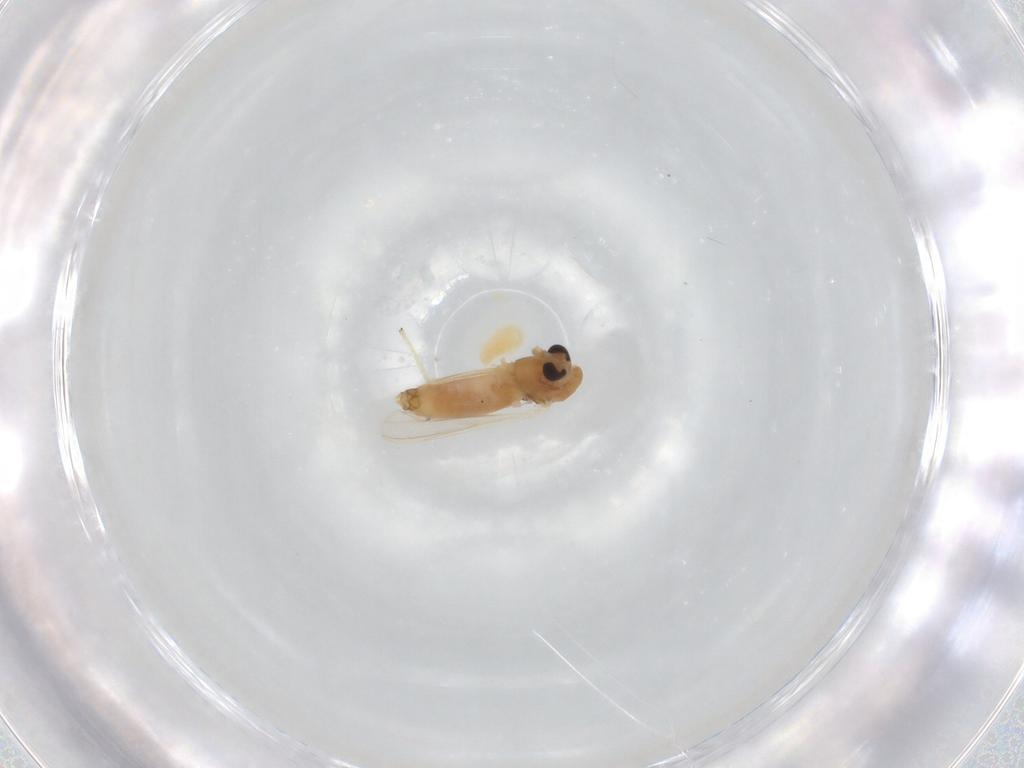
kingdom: Animalia
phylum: Arthropoda
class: Insecta
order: Diptera
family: Chironomidae
